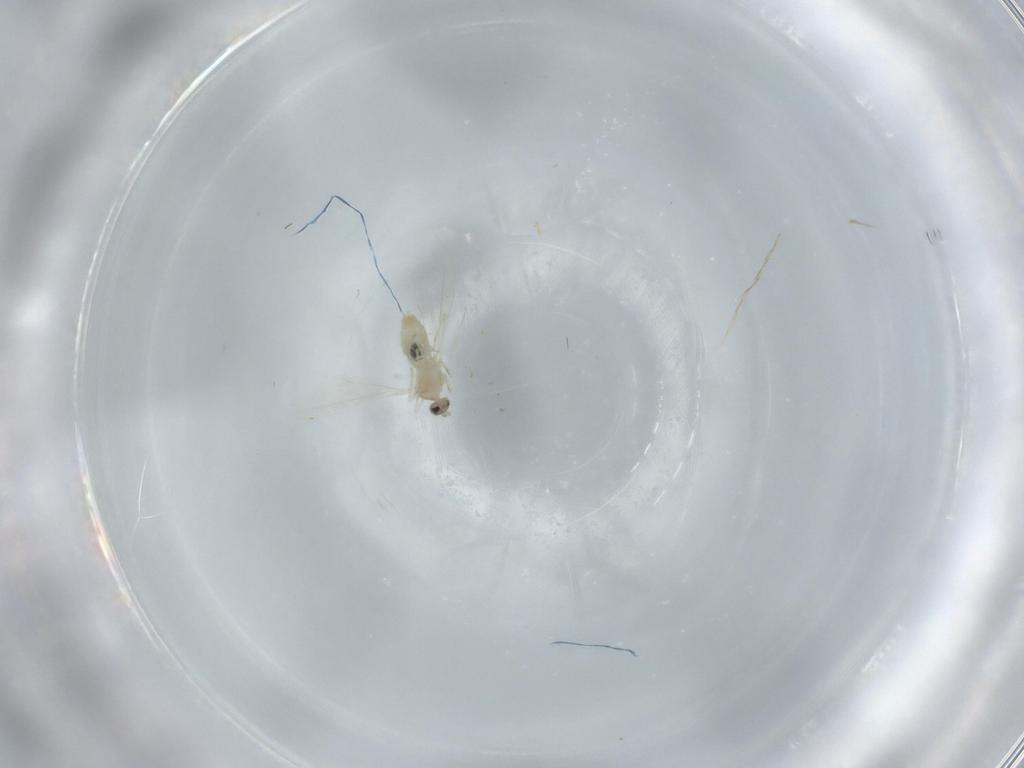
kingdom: Animalia
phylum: Arthropoda
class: Insecta
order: Diptera
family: Cecidomyiidae
